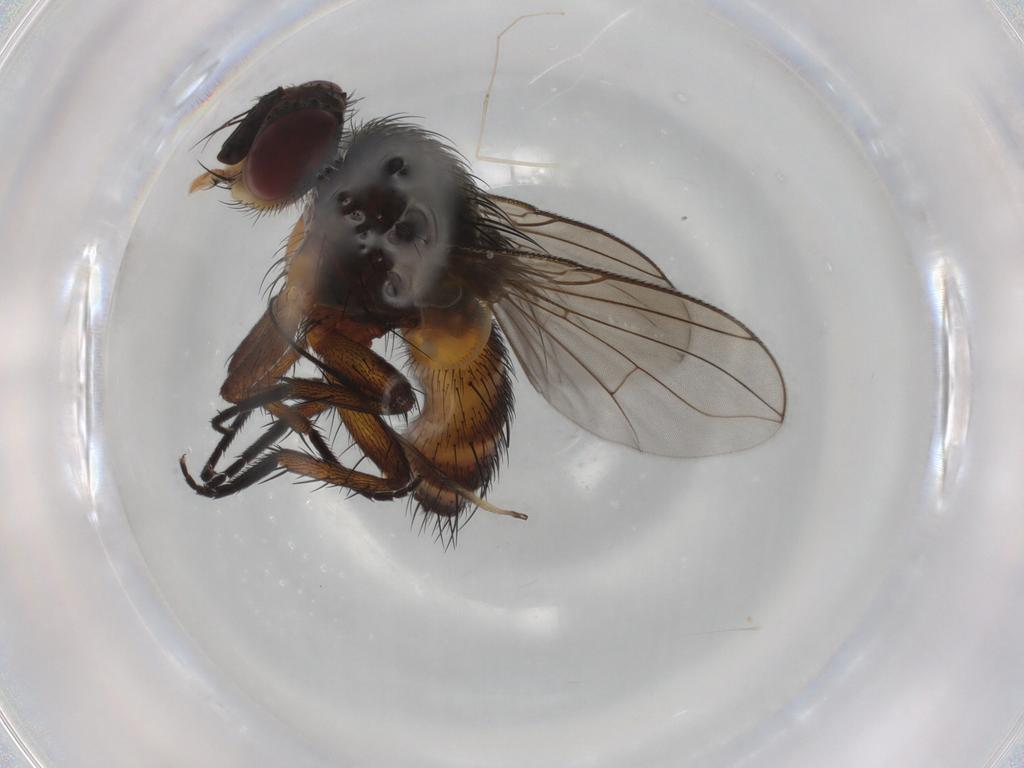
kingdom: Animalia
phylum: Arthropoda
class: Insecta
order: Diptera
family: Tachinidae
